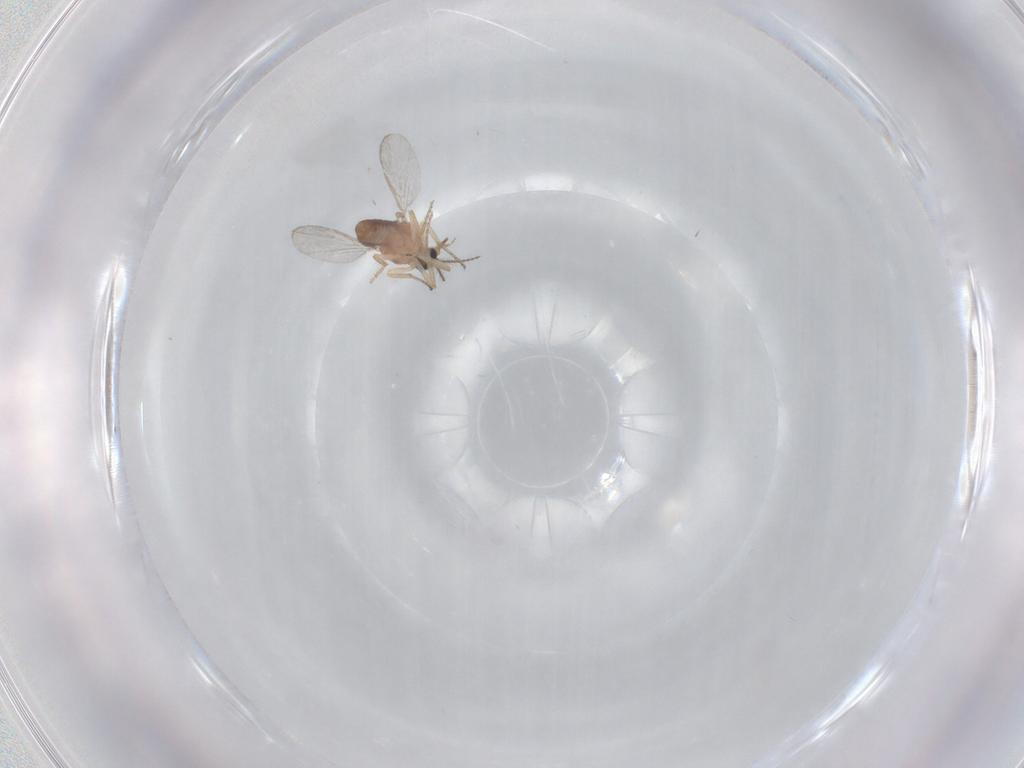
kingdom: Animalia
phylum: Arthropoda
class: Insecta
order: Diptera
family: Ceratopogonidae
